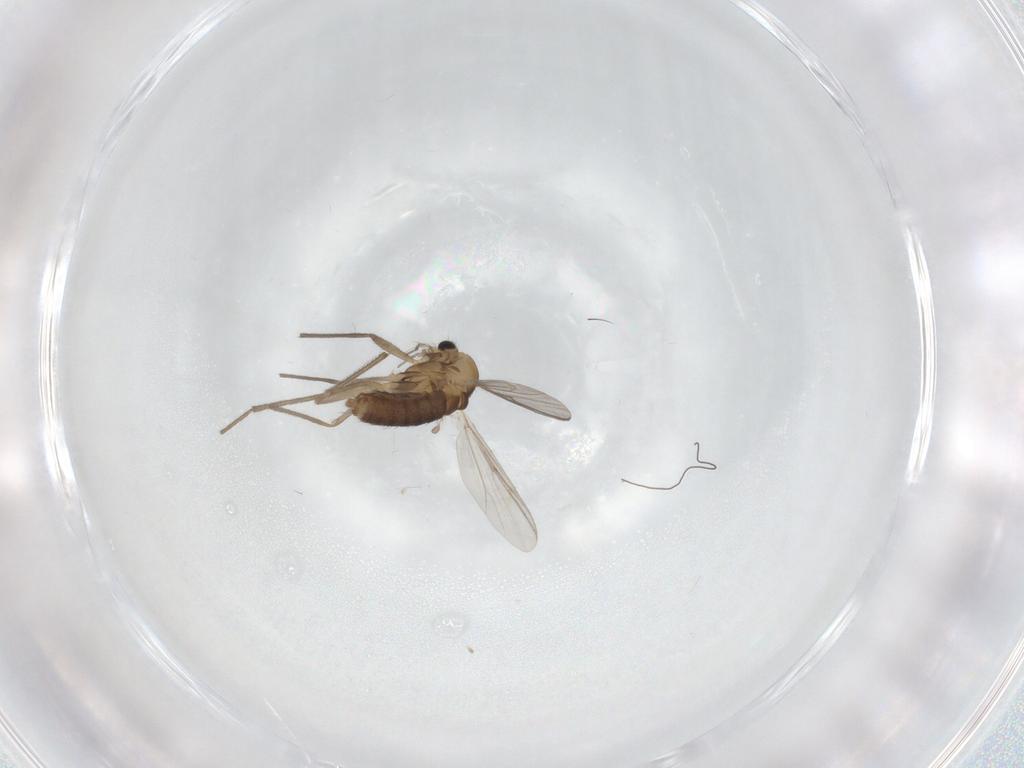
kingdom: Animalia
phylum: Arthropoda
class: Insecta
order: Diptera
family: Chironomidae
